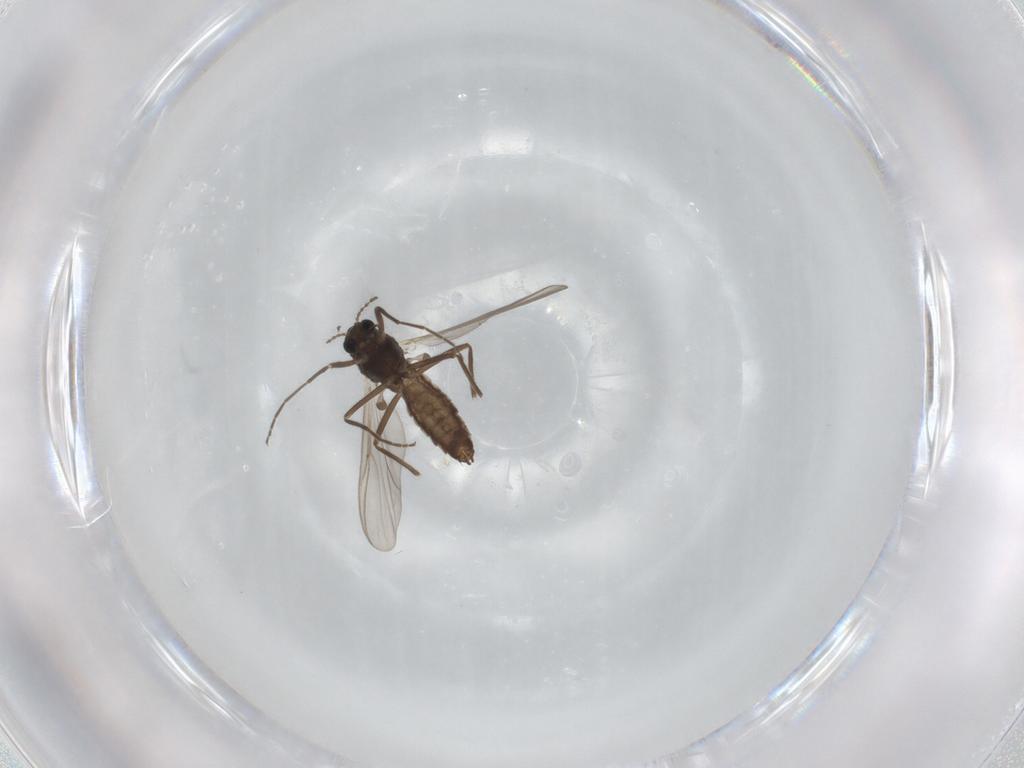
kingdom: Animalia
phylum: Arthropoda
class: Insecta
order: Diptera
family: Chironomidae
